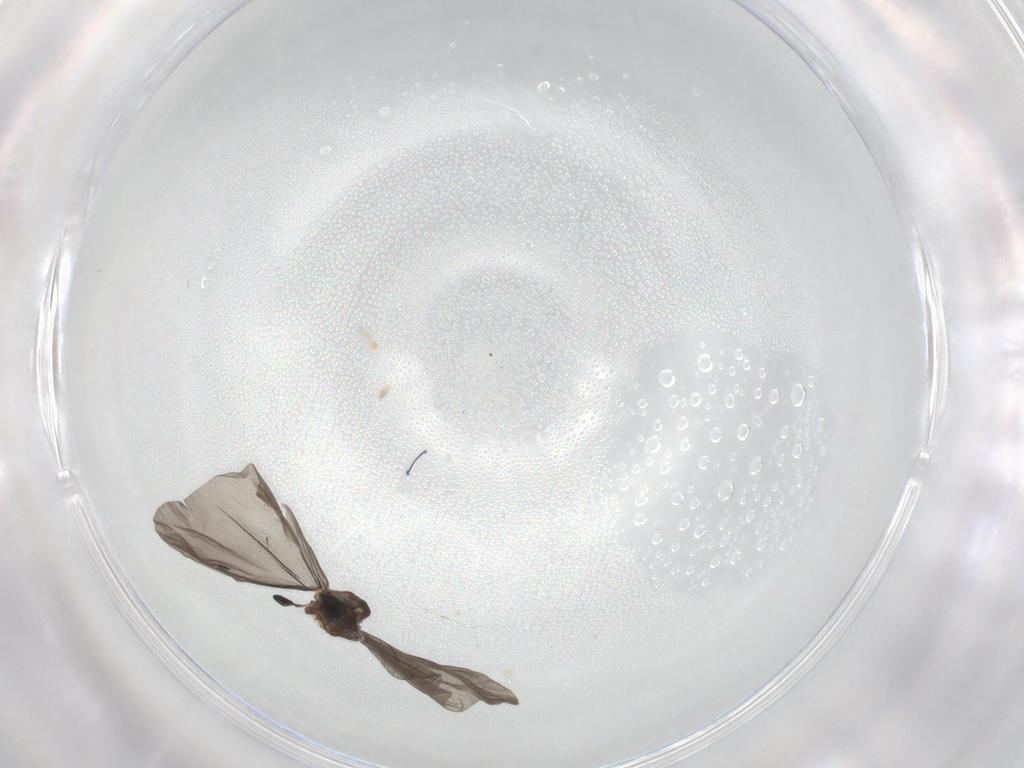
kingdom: Animalia
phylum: Arthropoda
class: Insecta
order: Diptera
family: Chironomidae
